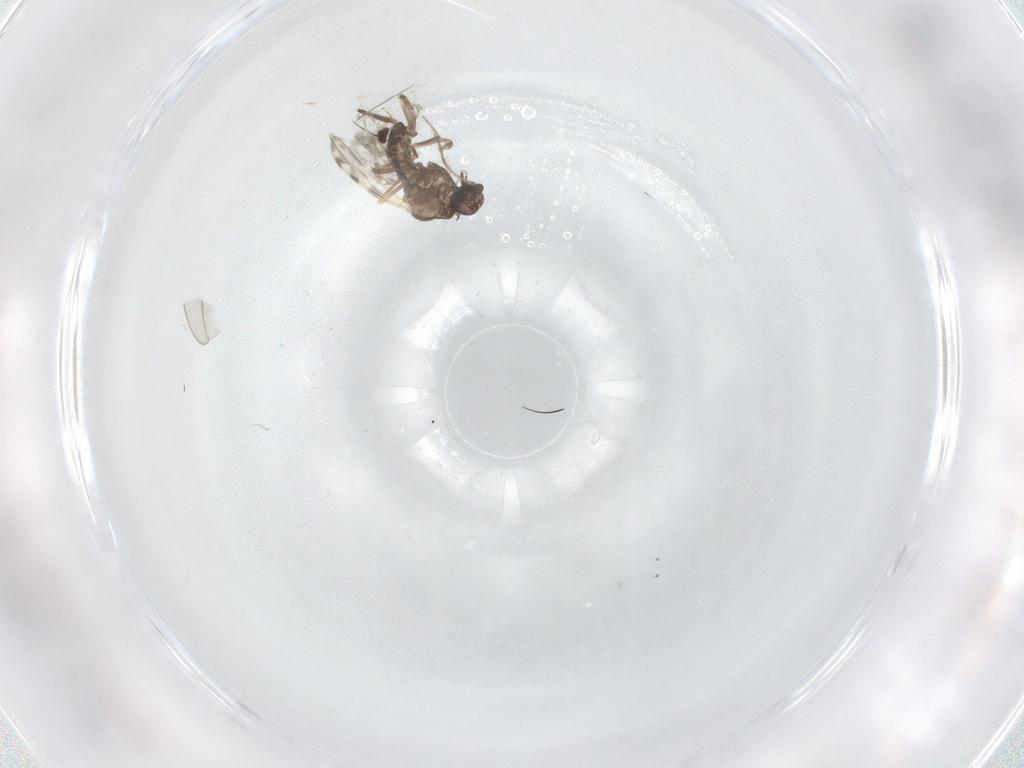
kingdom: Animalia
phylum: Arthropoda
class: Insecta
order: Diptera
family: Ceratopogonidae
